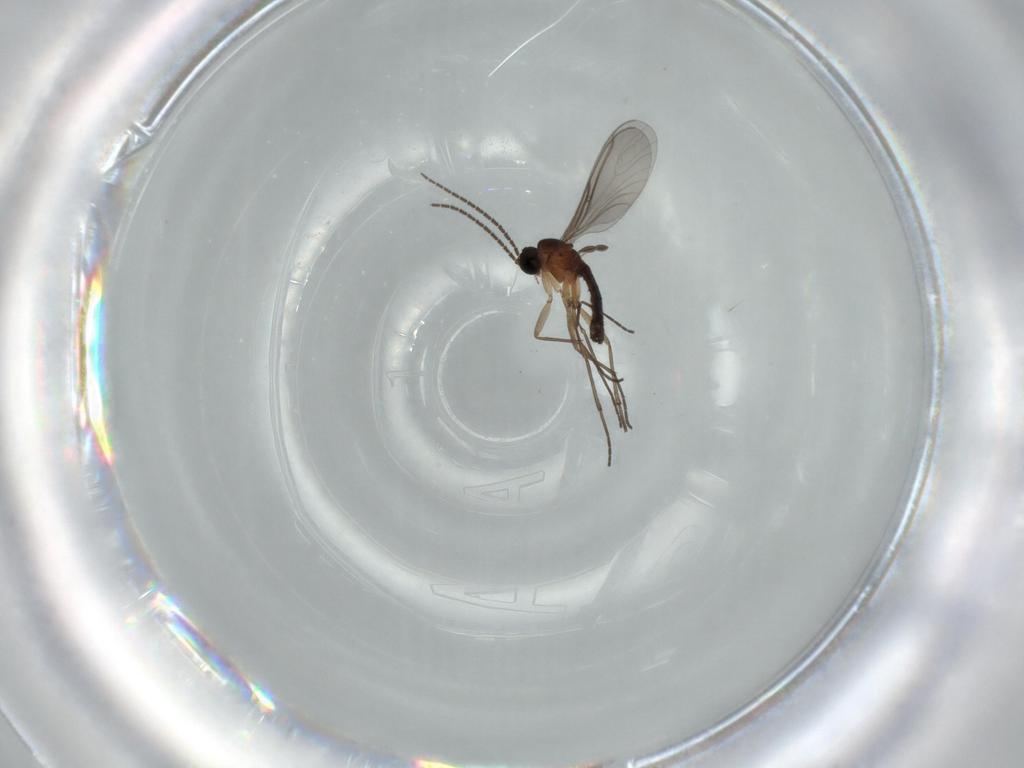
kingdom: Animalia
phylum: Arthropoda
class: Insecta
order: Diptera
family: Sciaridae
